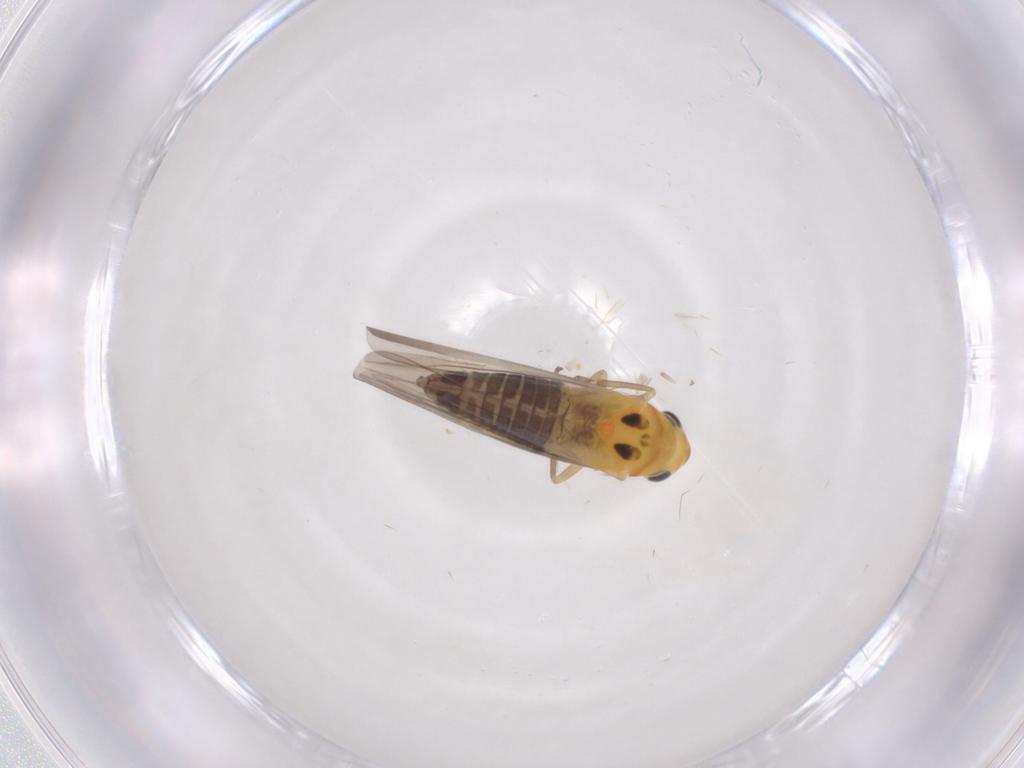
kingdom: Animalia
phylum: Arthropoda
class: Insecta
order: Hemiptera
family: Cicadellidae
